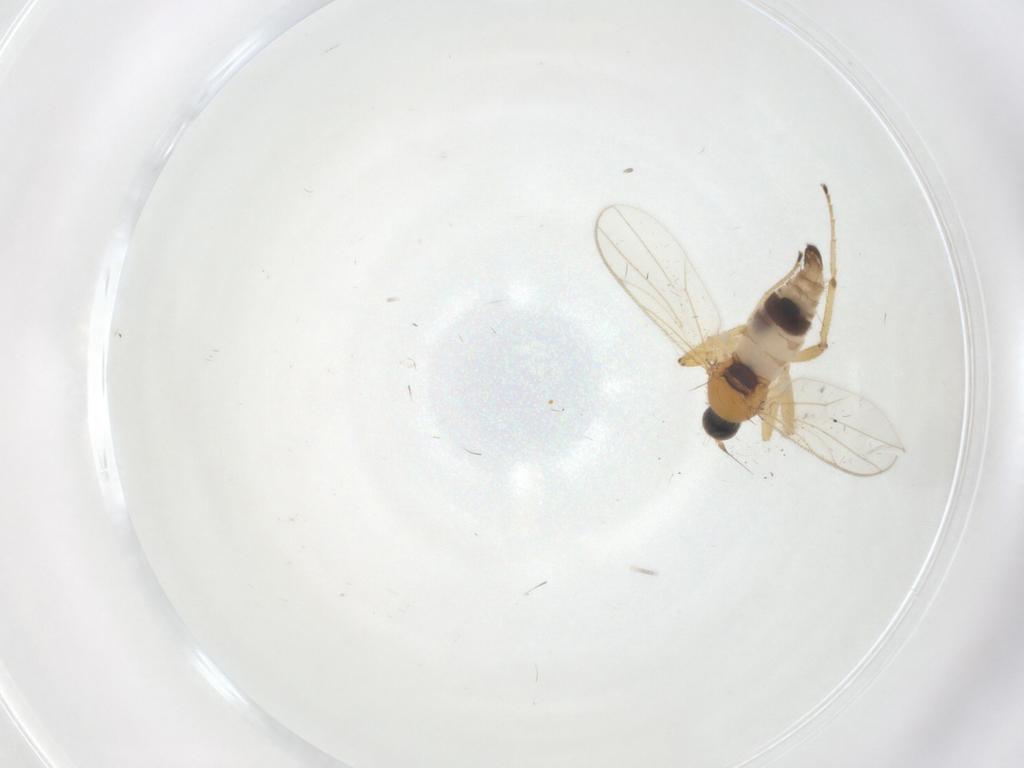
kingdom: Animalia
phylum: Arthropoda
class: Insecta
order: Diptera
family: Hybotidae
